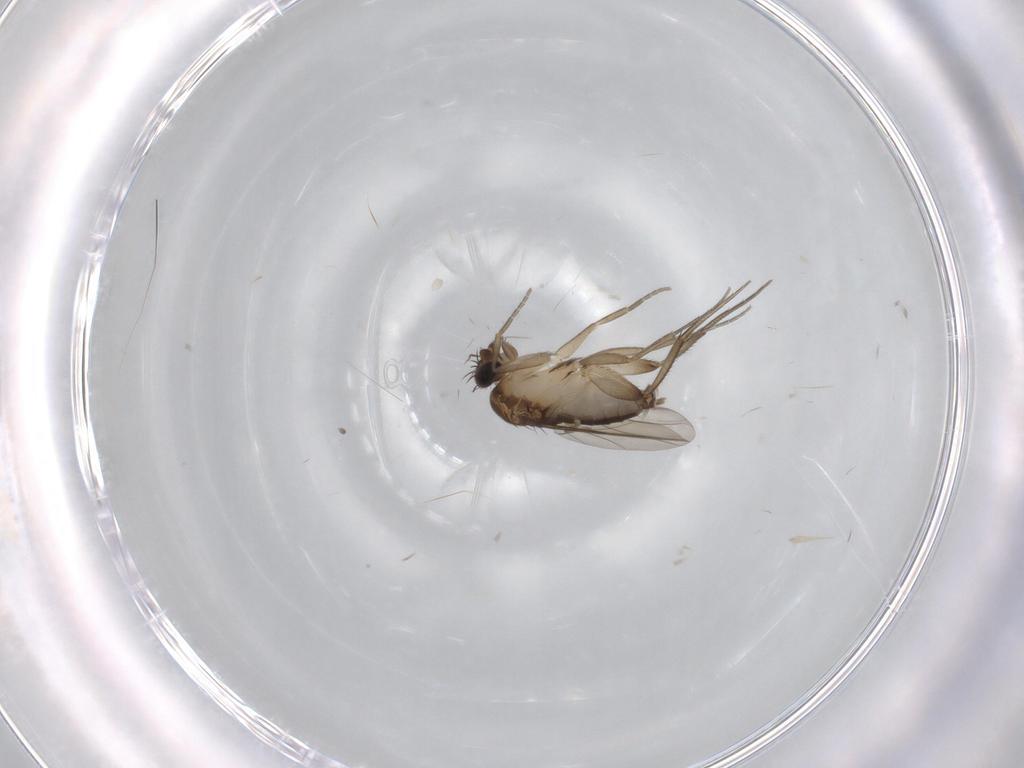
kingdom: Animalia
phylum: Arthropoda
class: Insecta
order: Diptera
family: Phoridae
